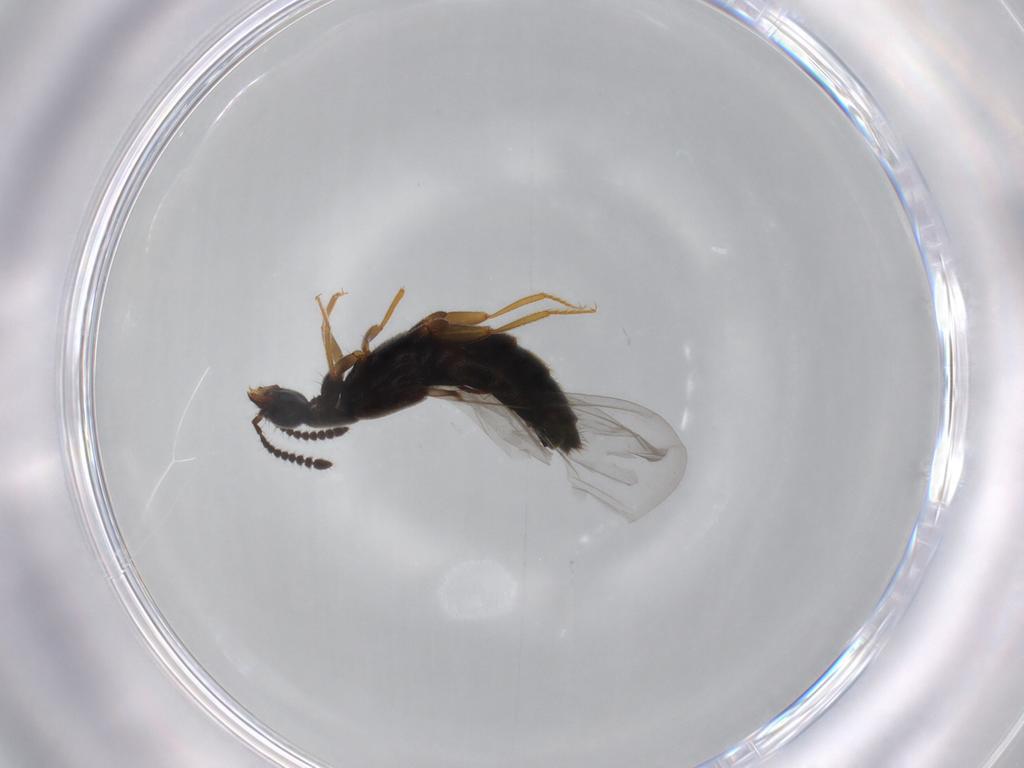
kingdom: Animalia
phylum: Arthropoda
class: Insecta
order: Coleoptera
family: Staphylinidae
